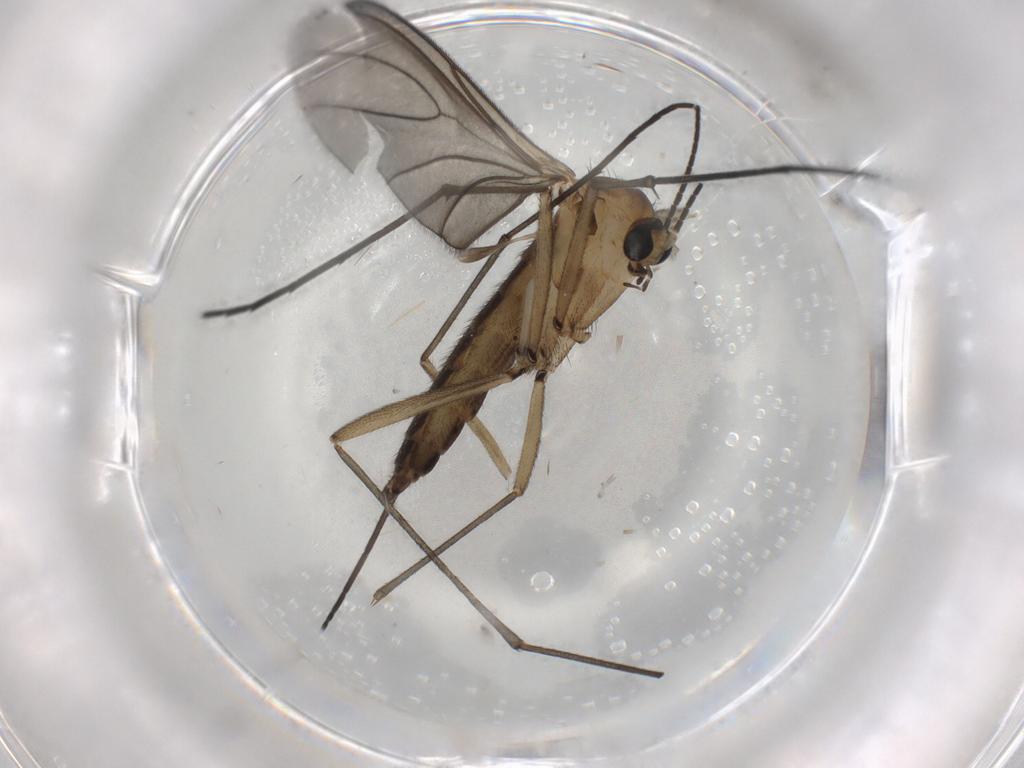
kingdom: Animalia
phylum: Arthropoda
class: Insecta
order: Diptera
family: Sciaridae
